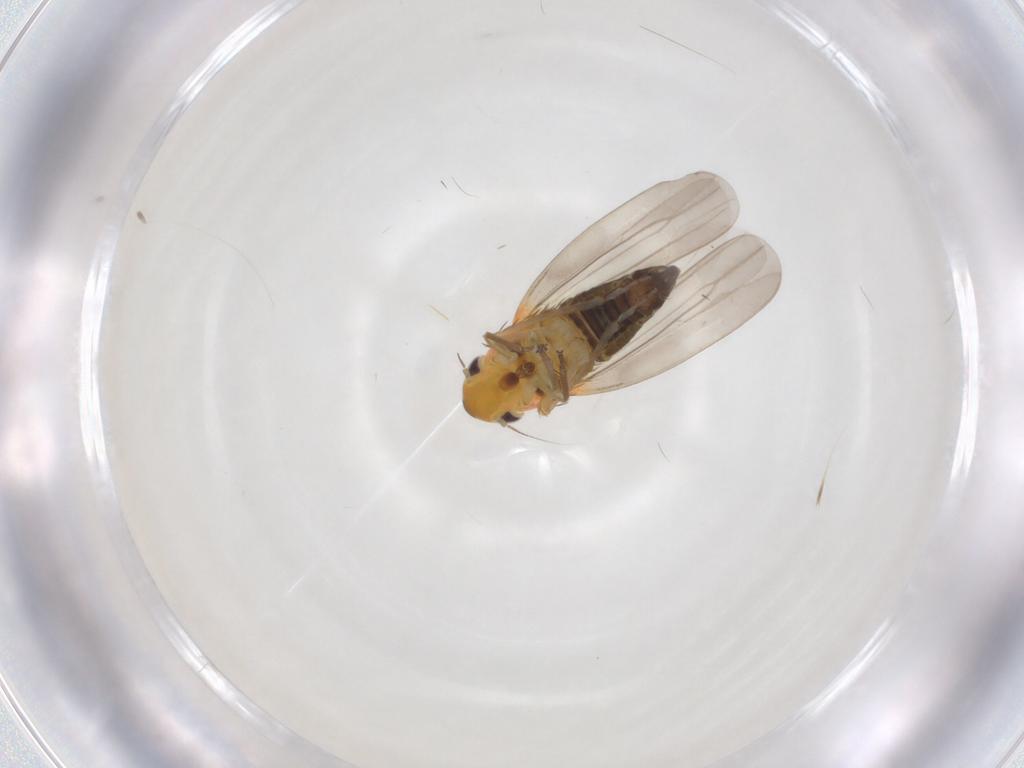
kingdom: Animalia
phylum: Arthropoda
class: Insecta
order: Hemiptera
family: Cicadellidae
